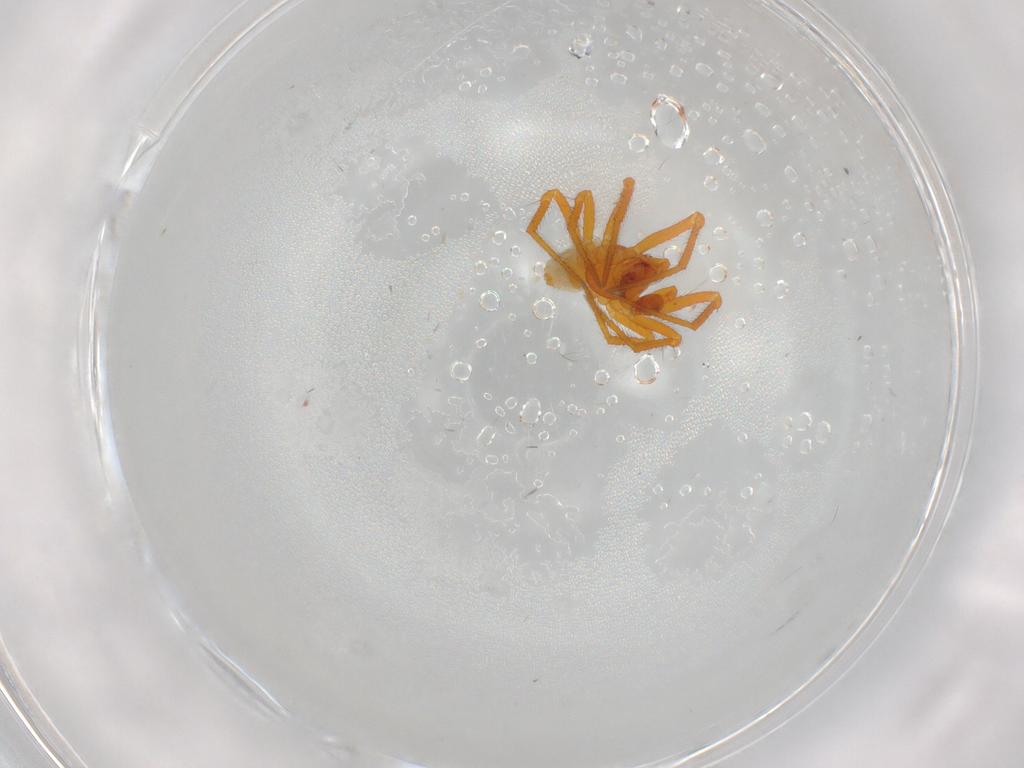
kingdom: Animalia
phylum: Arthropoda
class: Arachnida
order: Araneae
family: Theridiidae
